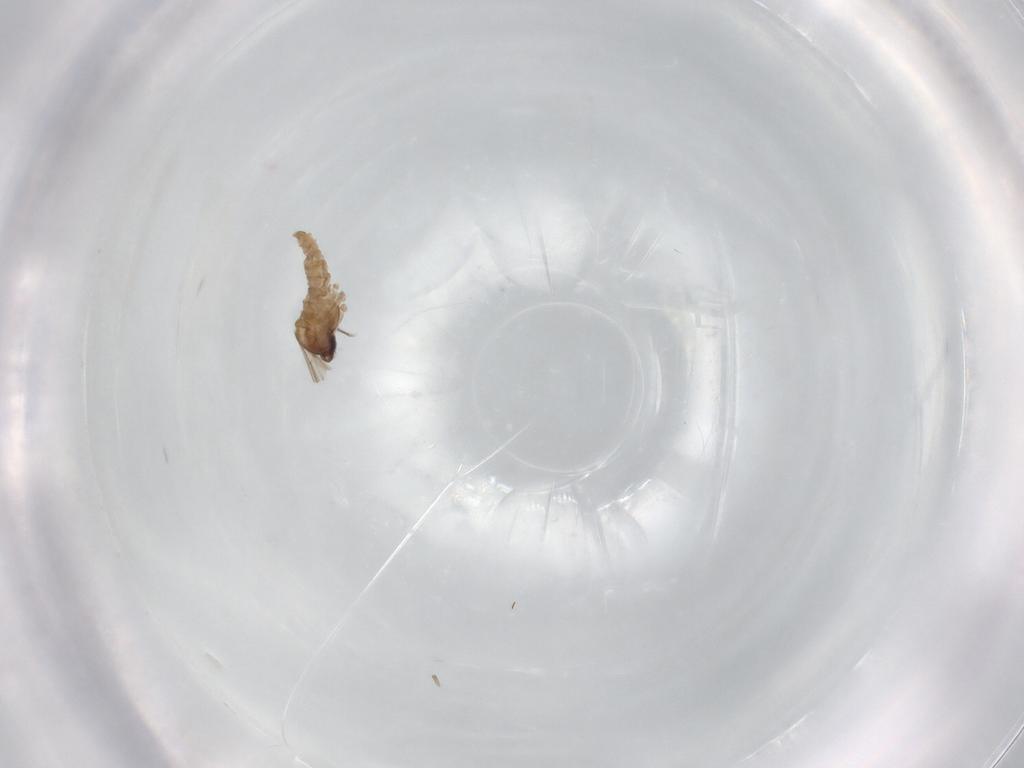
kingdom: Animalia
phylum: Arthropoda
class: Insecta
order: Diptera
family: Cecidomyiidae
